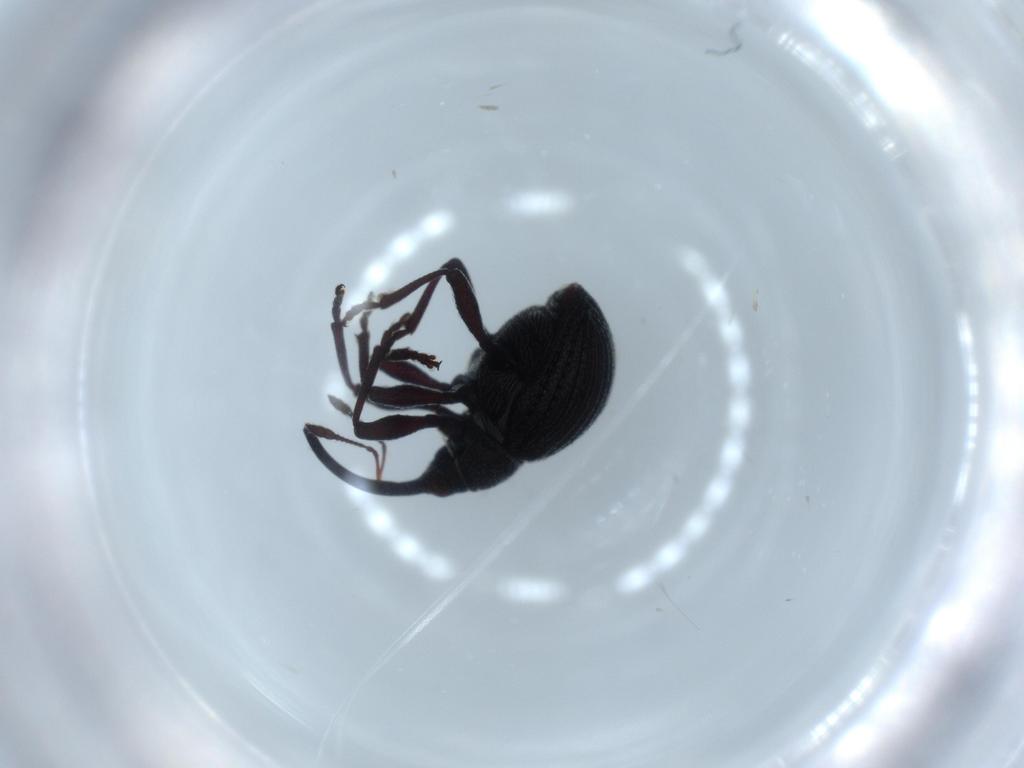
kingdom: Animalia
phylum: Arthropoda
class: Insecta
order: Coleoptera
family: Brentidae
